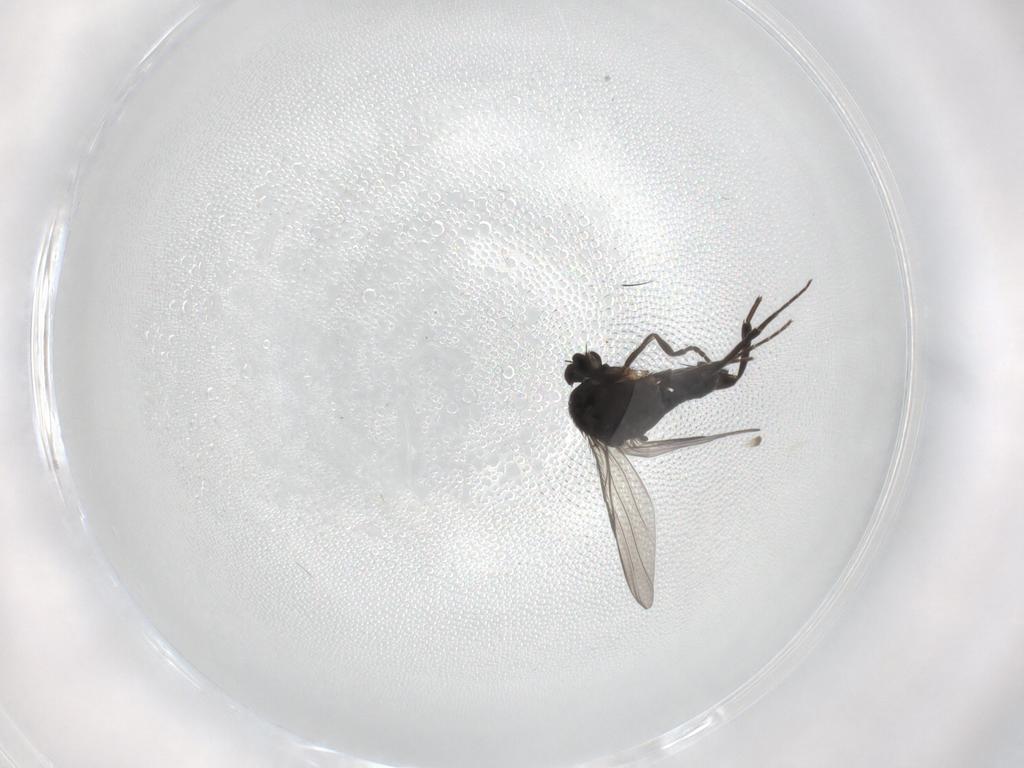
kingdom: Animalia
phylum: Arthropoda
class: Insecta
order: Diptera
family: Phoridae
